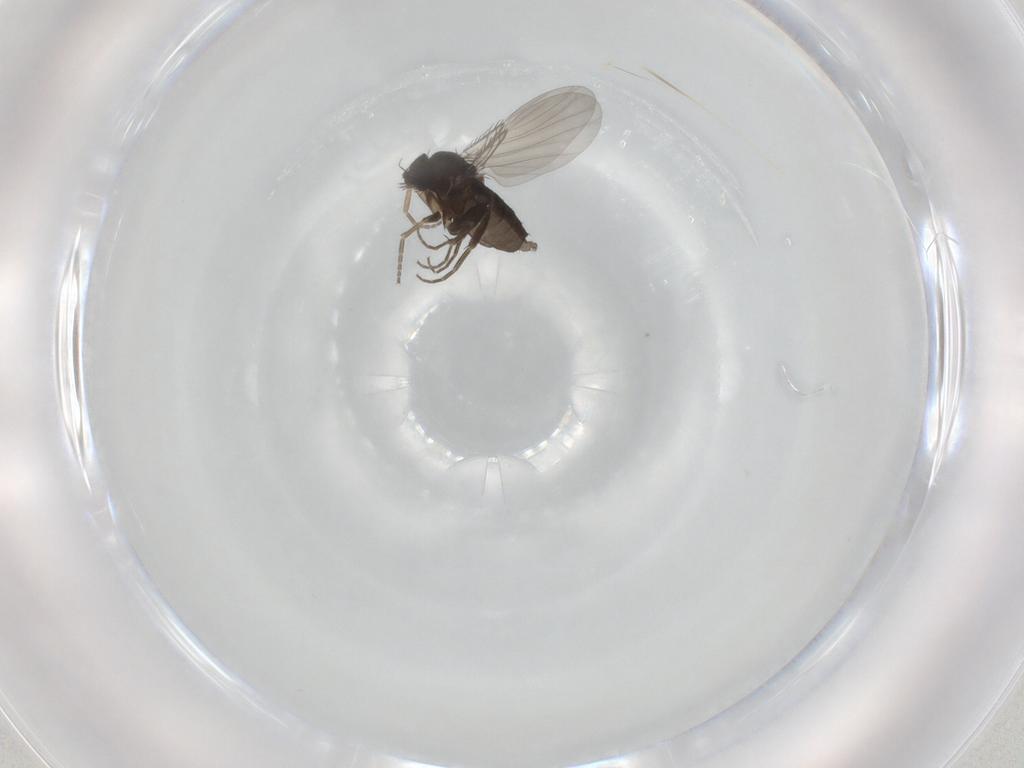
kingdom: Animalia
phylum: Arthropoda
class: Insecta
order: Diptera
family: Phoridae
